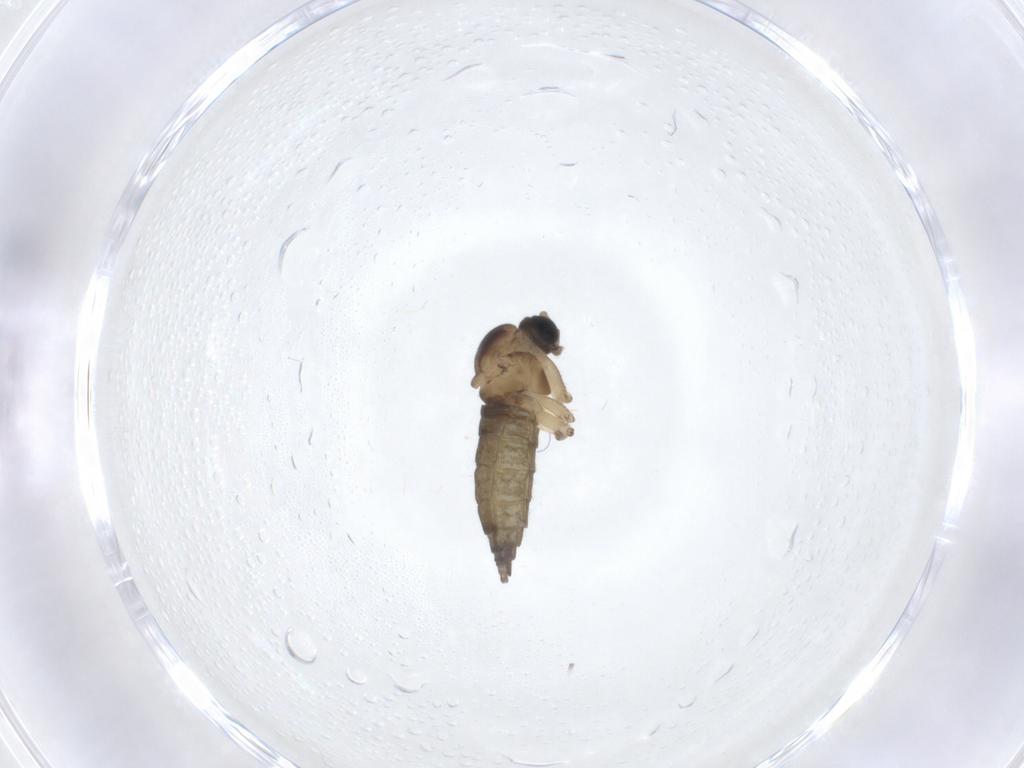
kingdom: Animalia
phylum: Arthropoda
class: Insecta
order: Diptera
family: Sciaridae
